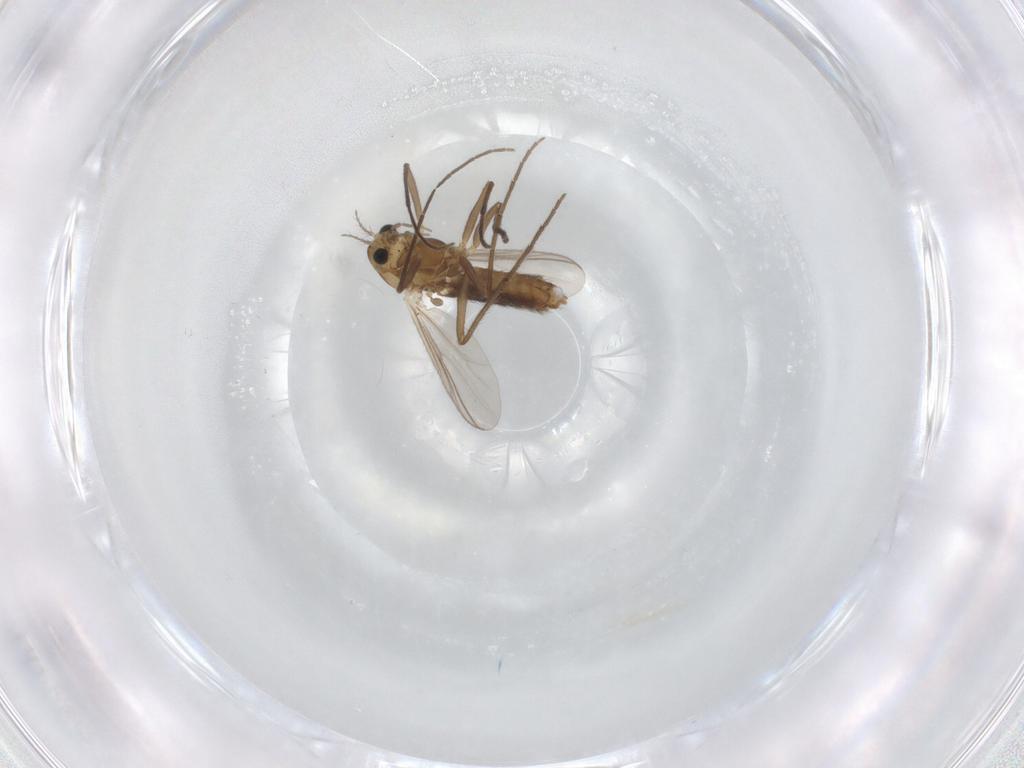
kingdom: Animalia
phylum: Arthropoda
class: Insecta
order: Diptera
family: Chironomidae
